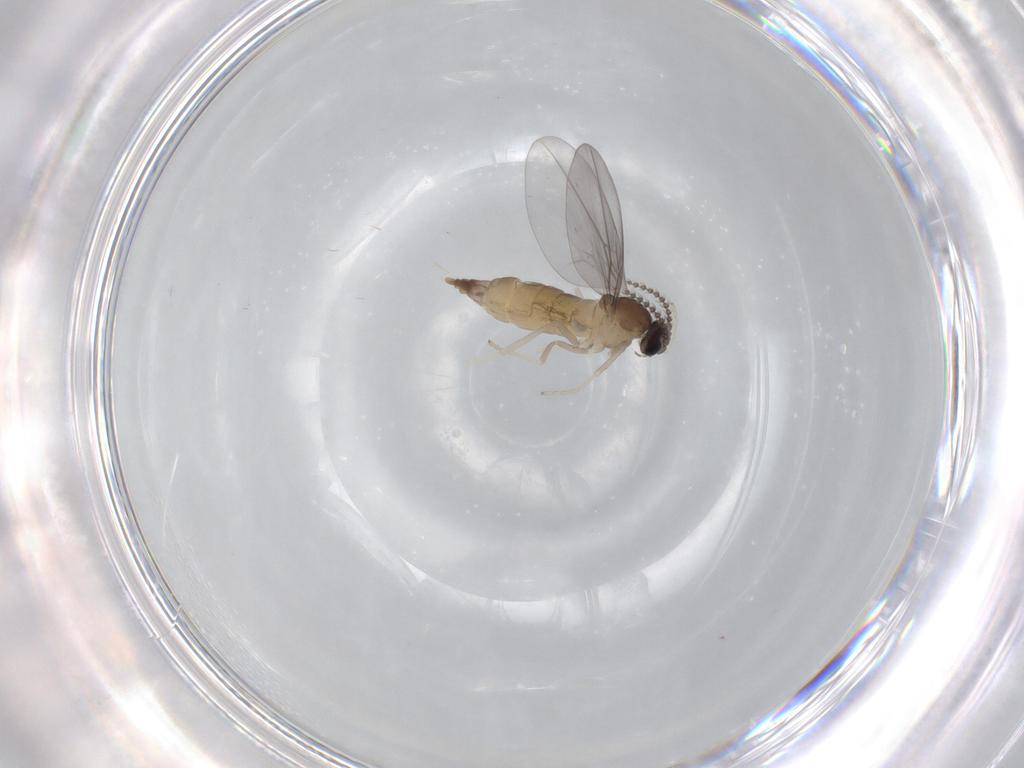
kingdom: Animalia
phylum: Arthropoda
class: Insecta
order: Diptera
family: Cecidomyiidae
